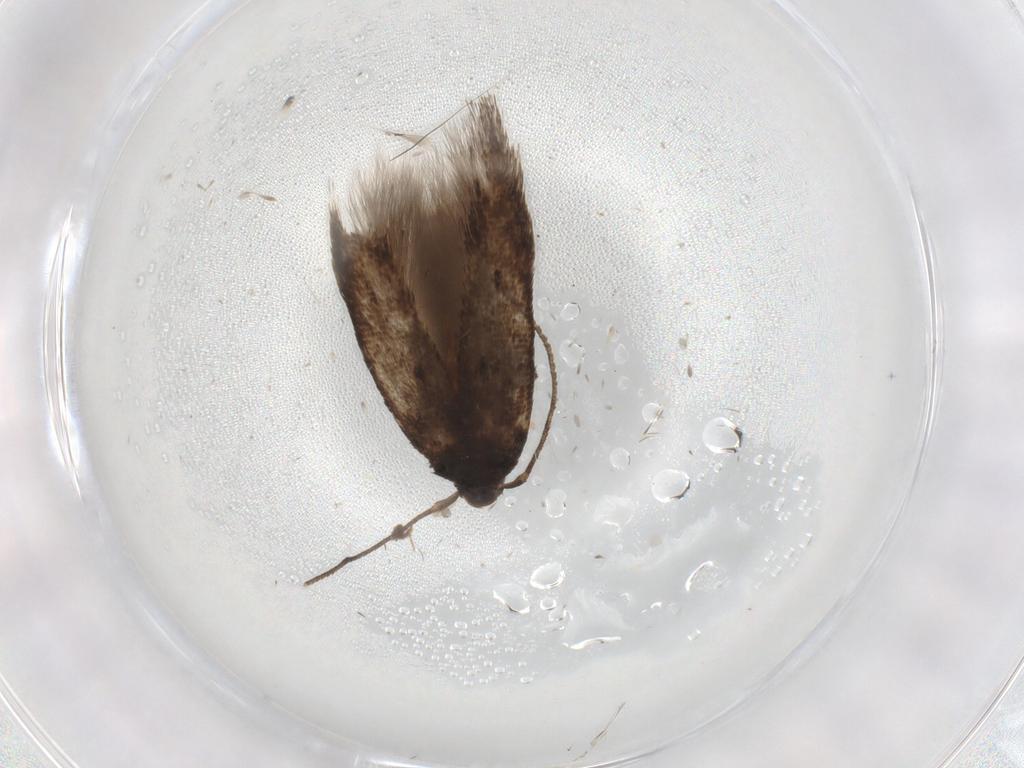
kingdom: Animalia
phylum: Arthropoda
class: Insecta
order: Lepidoptera
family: Cosmopterigidae
